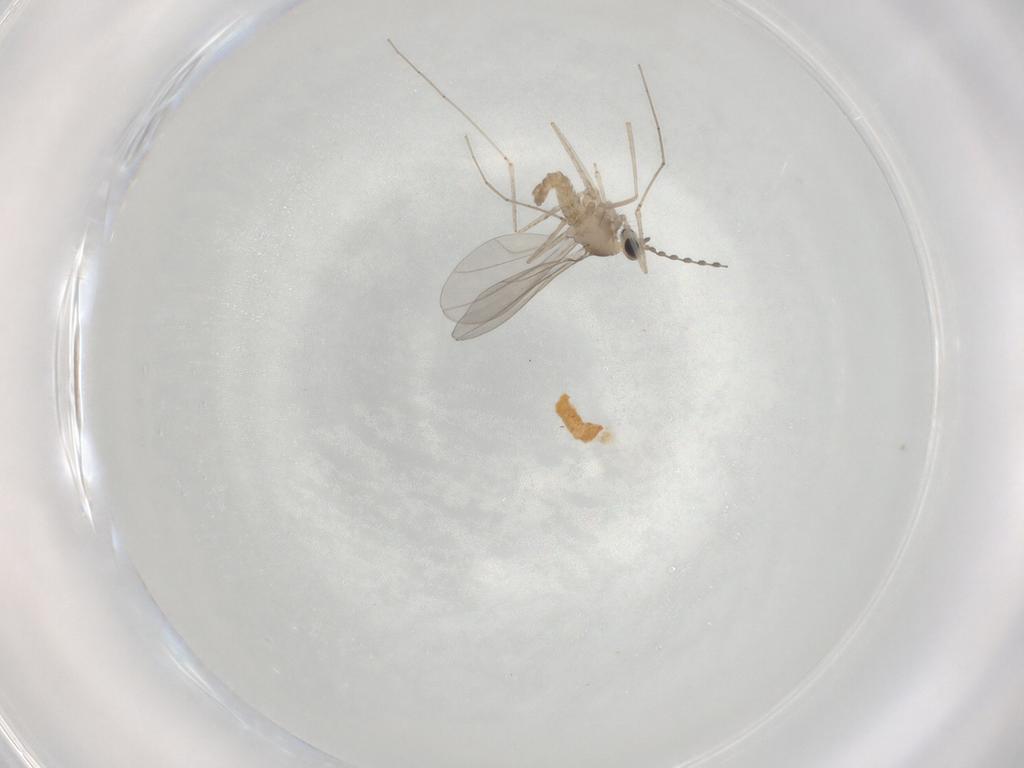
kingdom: Animalia
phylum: Arthropoda
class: Insecta
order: Diptera
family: Cecidomyiidae
